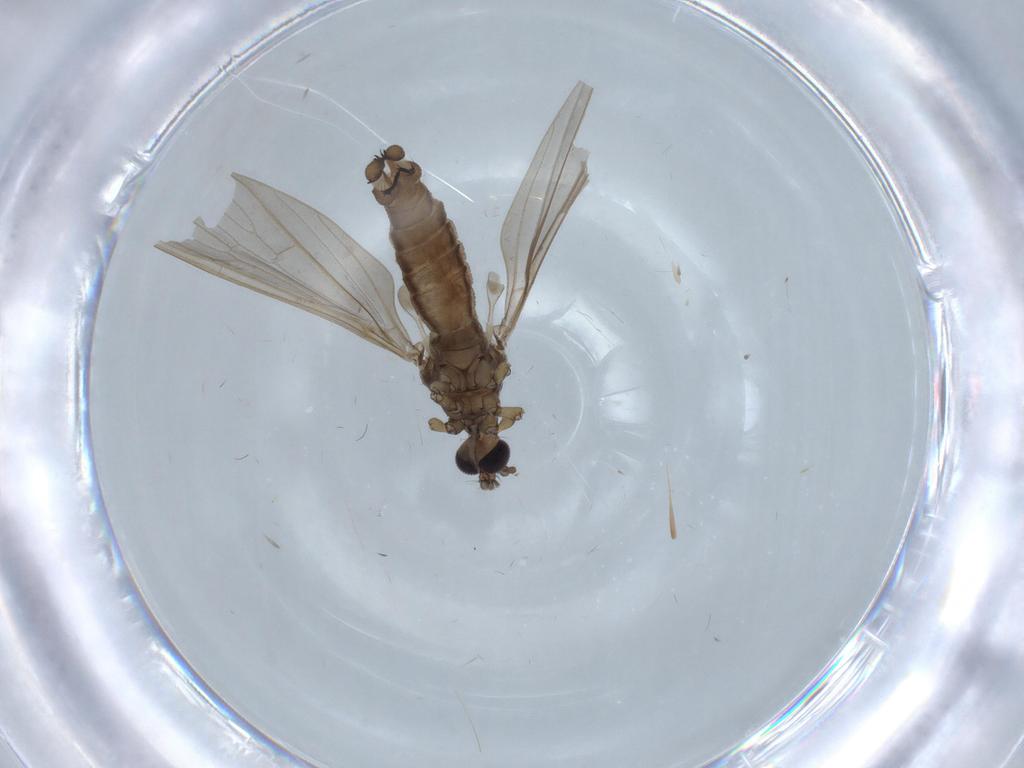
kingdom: Animalia
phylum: Arthropoda
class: Insecta
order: Diptera
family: Limoniidae
